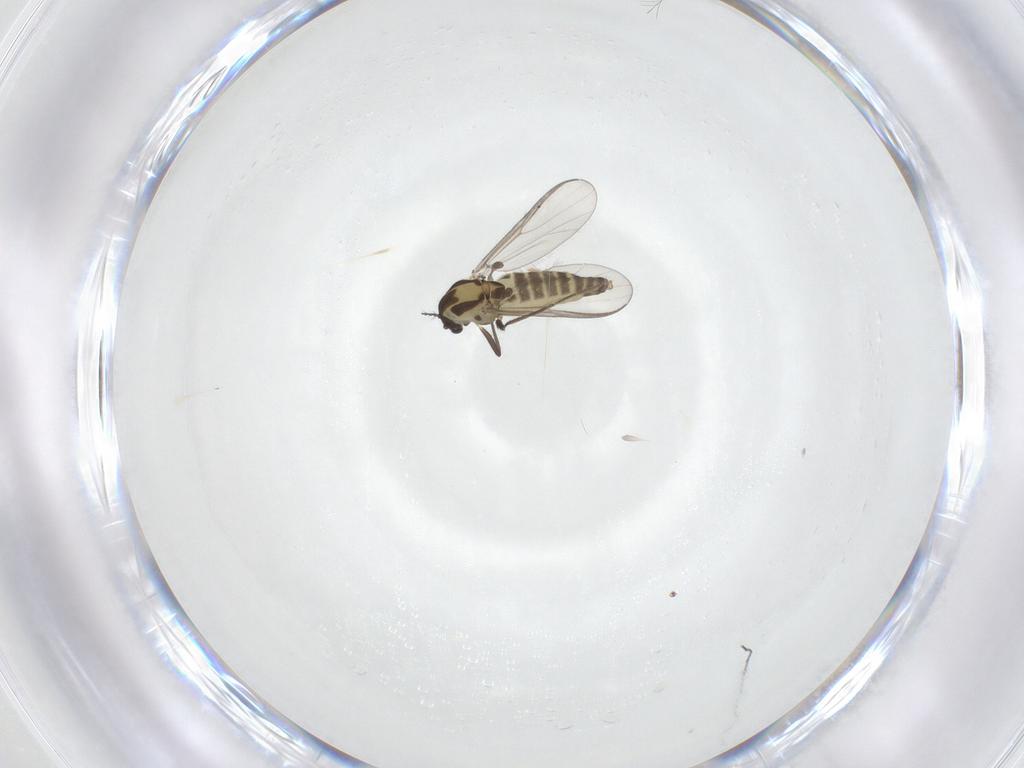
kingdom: Animalia
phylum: Arthropoda
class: Insecta
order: Diptera
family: Chironomidae
